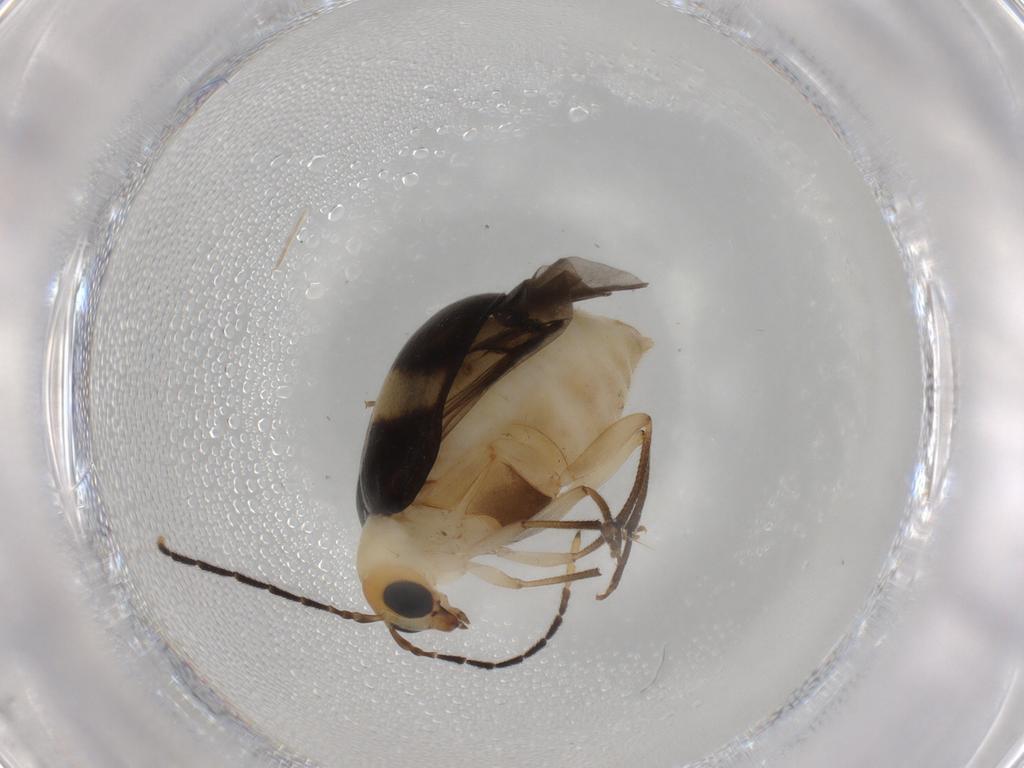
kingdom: Animalia
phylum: Arthropoda
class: Insecta
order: Coleoptera
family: Chrysomelidae
